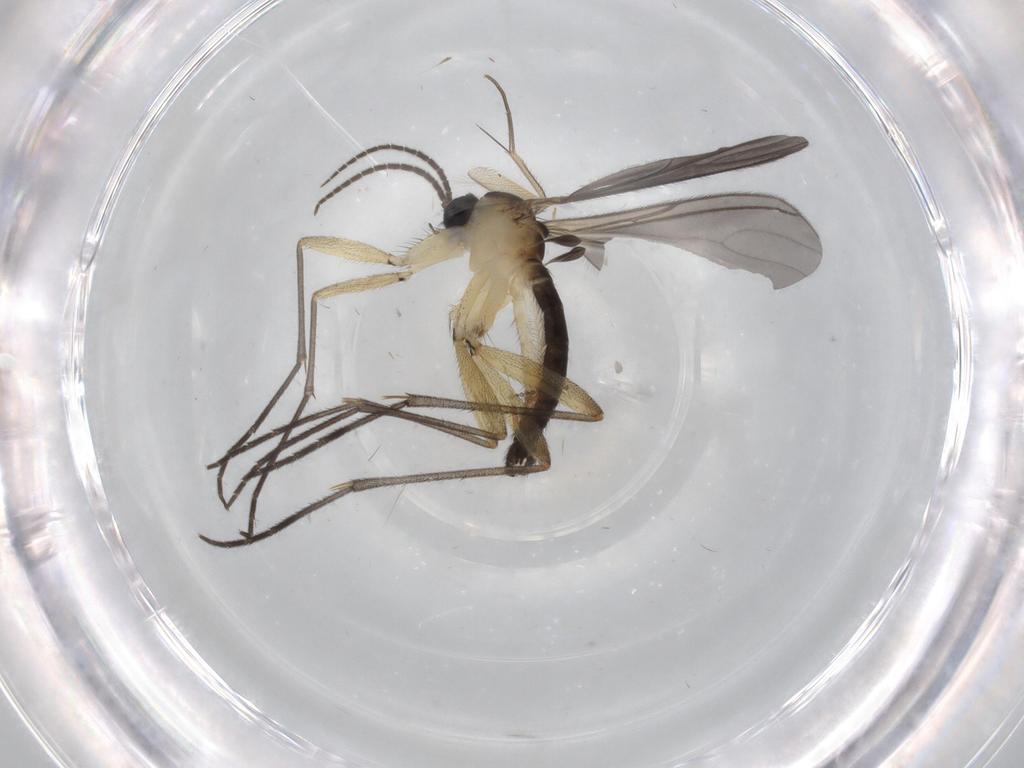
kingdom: Animalia
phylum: Arthropoda
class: Insecta
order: Diptera
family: Sciaridae
